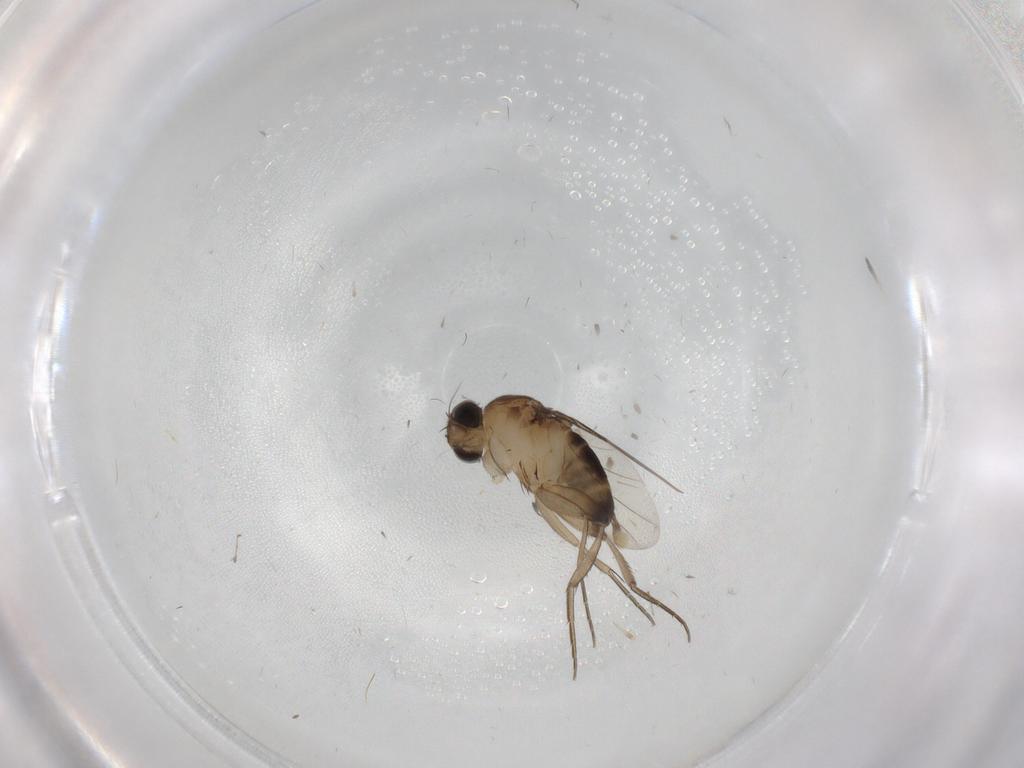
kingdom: Animalia
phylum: Arthropoda
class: Insecta
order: Diptera
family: Phoridae
